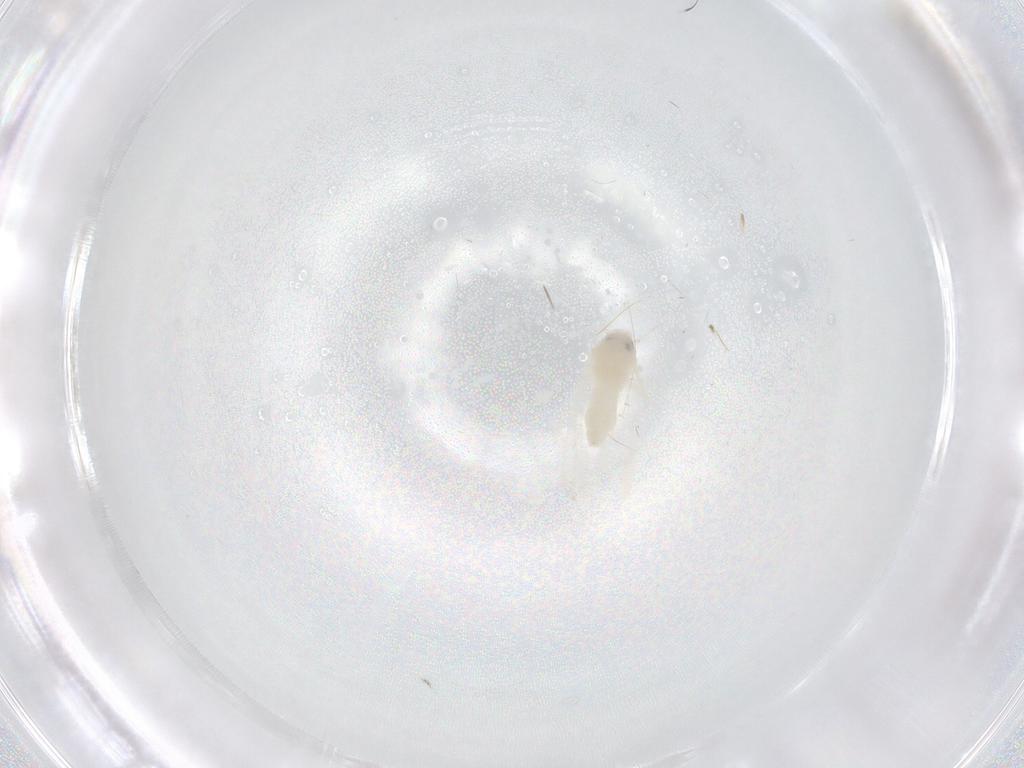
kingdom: Animalia
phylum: Arthropoda
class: Insecta
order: Hemiptera
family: Aleyrodidae
